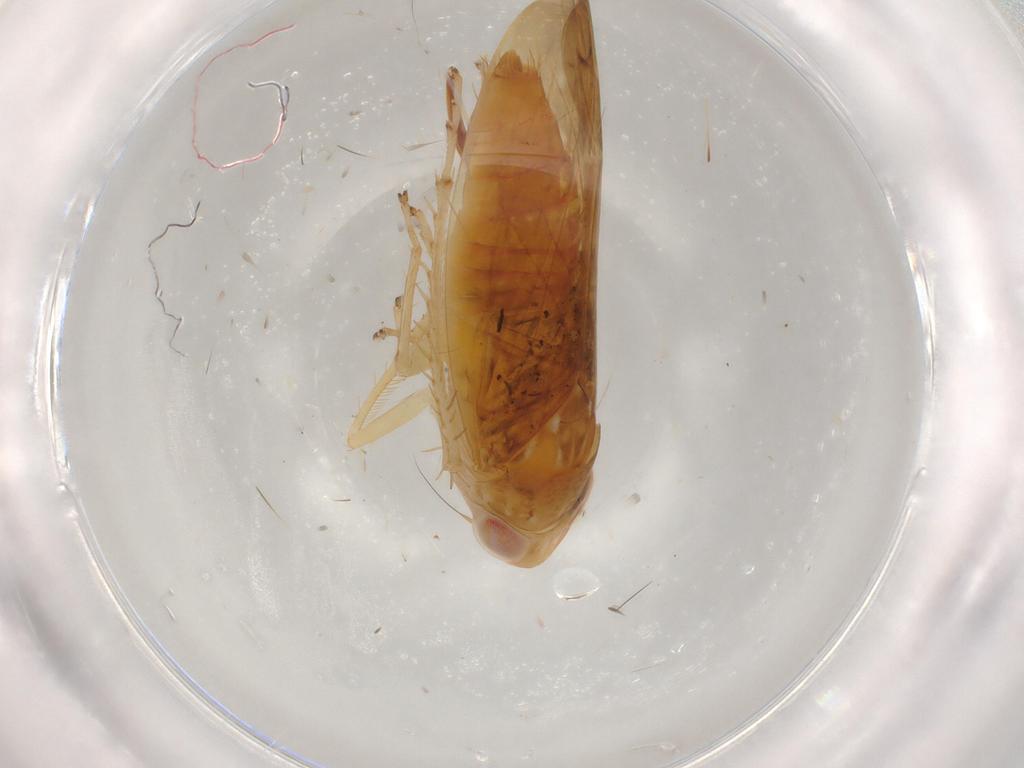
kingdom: Animalia
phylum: Arthropoda
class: Insecta
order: Hemiptera
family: Cicadellidae
